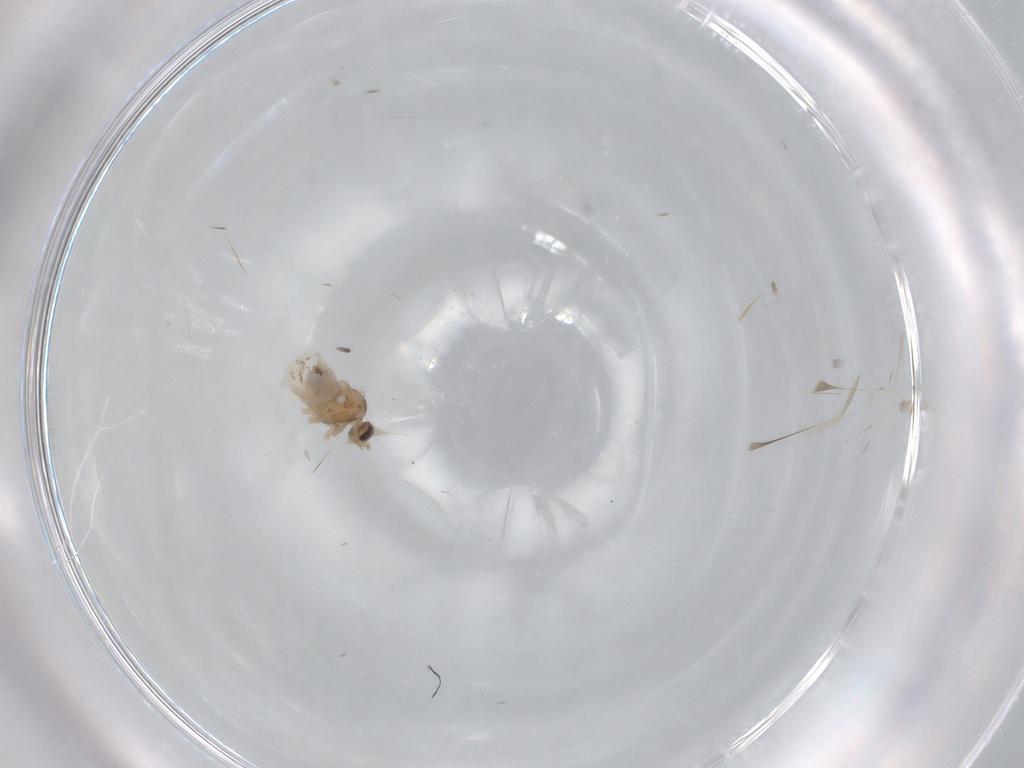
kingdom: Animalia
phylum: Arthropoda
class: Insecta
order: Diptera
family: Cecidomyiidae
